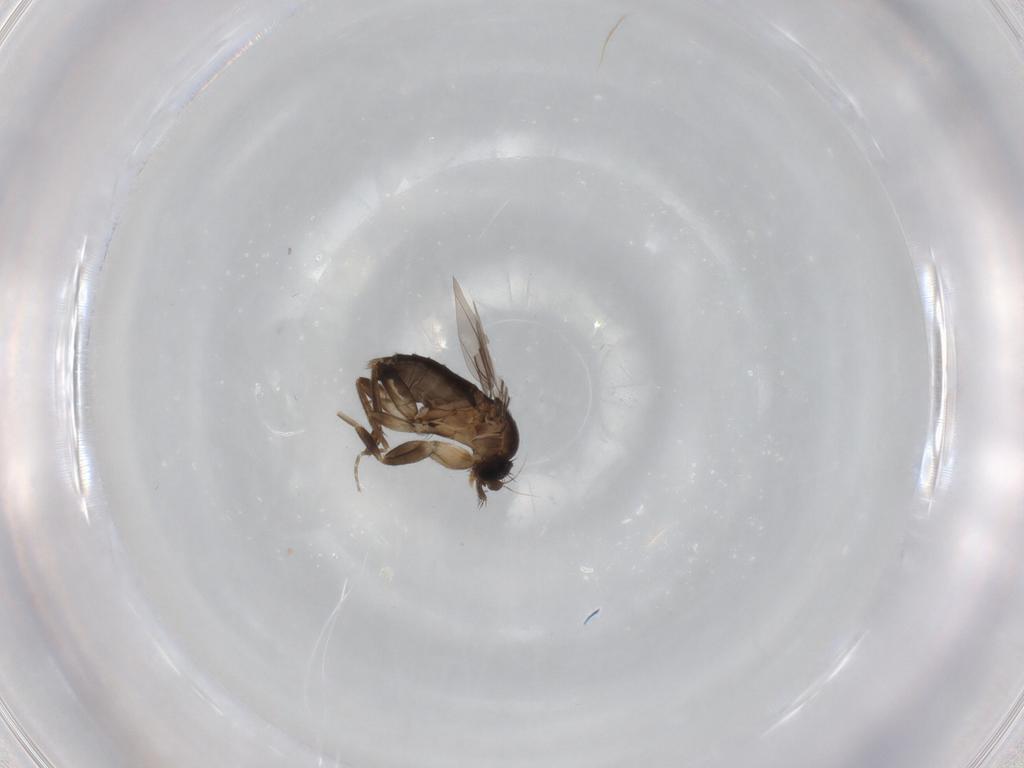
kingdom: Animalia
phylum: Arthropoda
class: Insecta
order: Diptera
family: Phoridae
